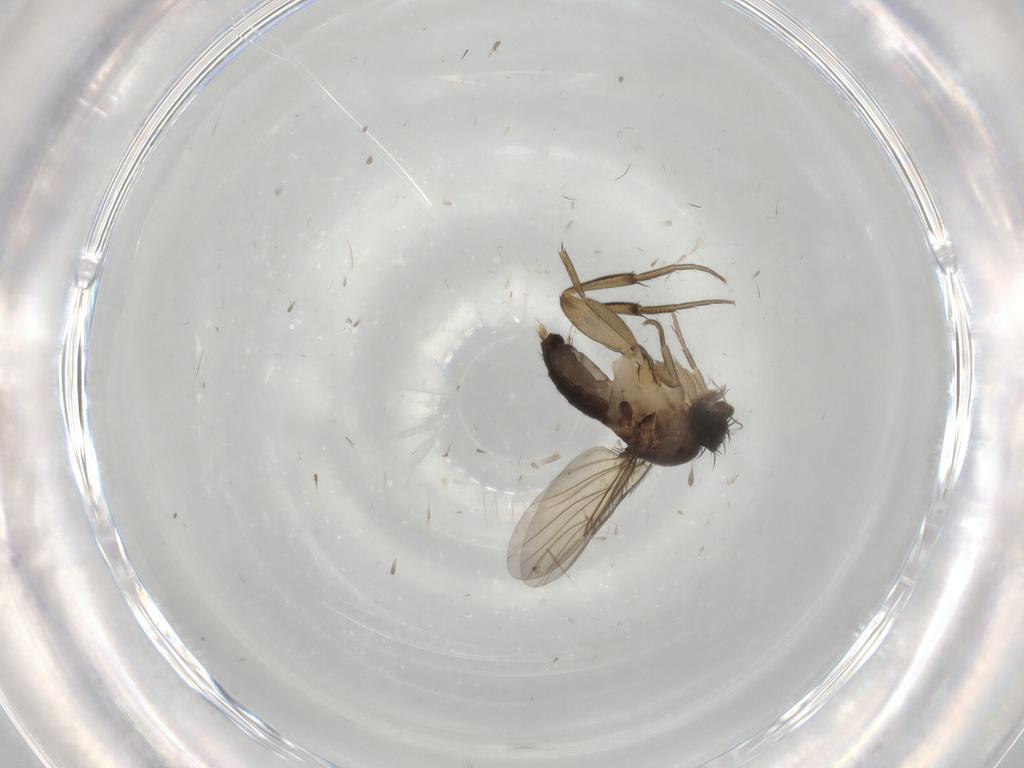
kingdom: Animalia
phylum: Arthropoda
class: Insecta
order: Diptera
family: Phoridae
